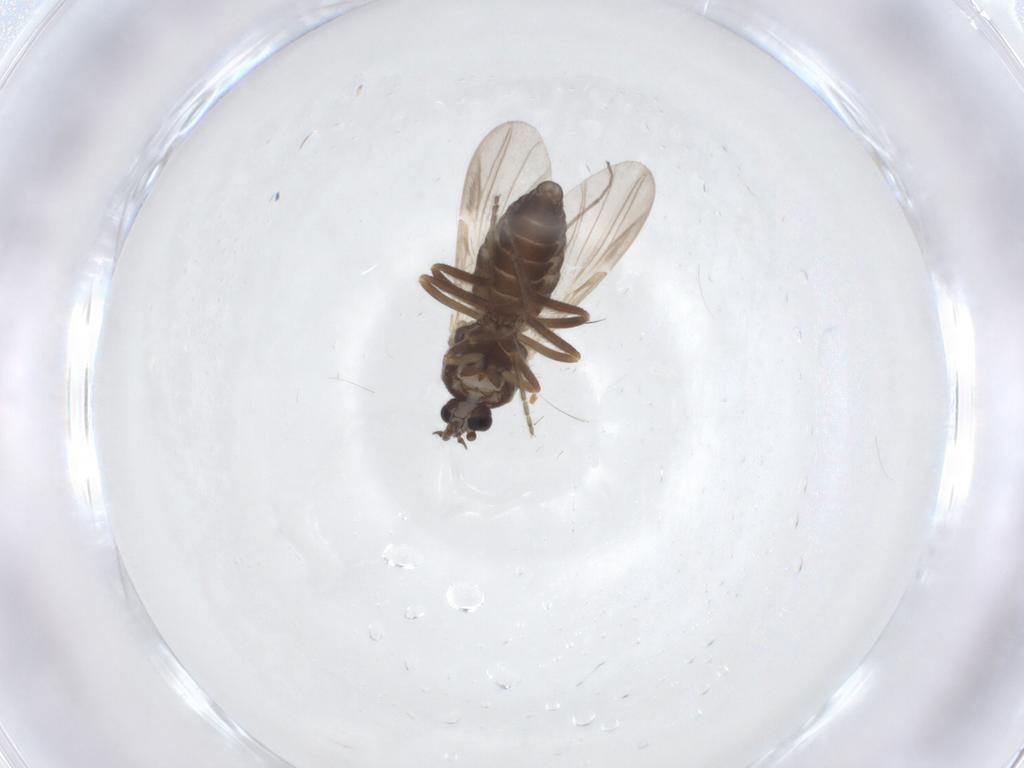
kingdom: Animalia
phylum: Arthropoda
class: Insecta
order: Diptera
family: Ceratopogonidae
